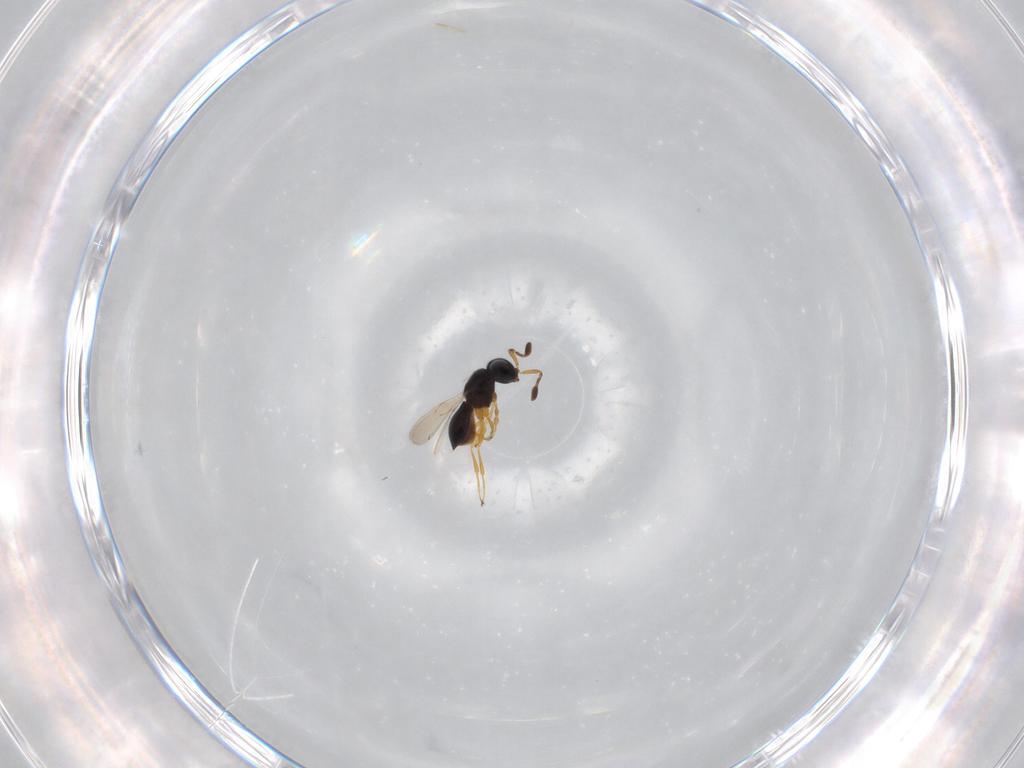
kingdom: Animalia
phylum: Arthropoda
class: Insecta
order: Hymenoptera
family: Scelionidae
